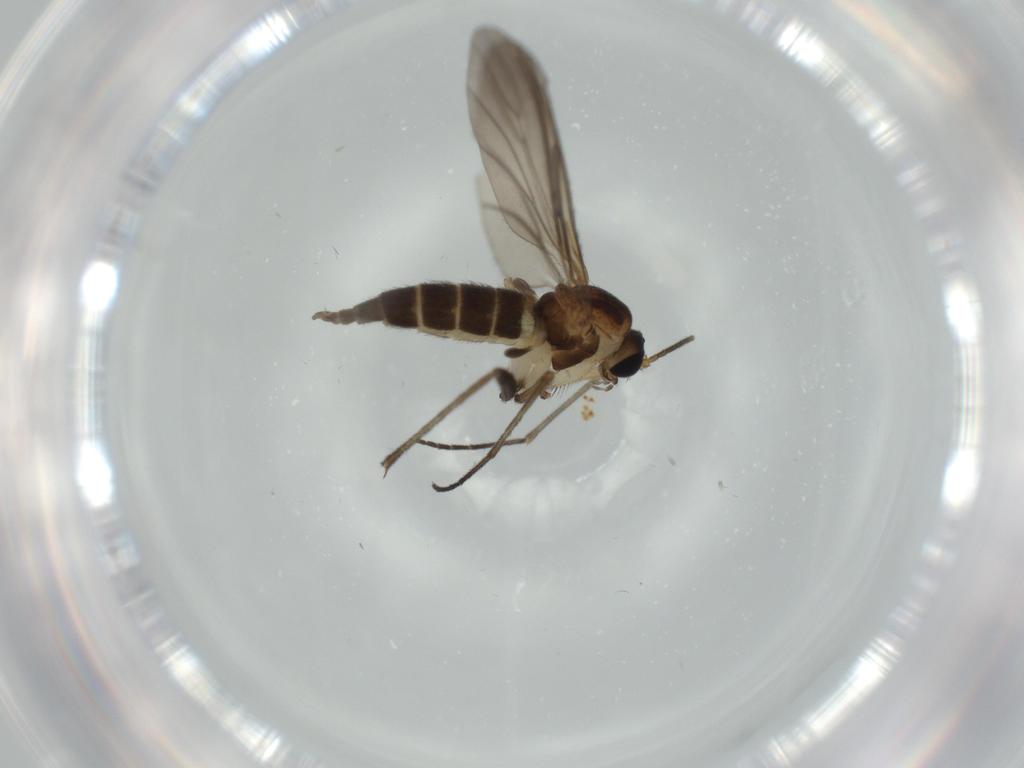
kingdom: Animalia
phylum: Arthropoda
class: Insecta
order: Diptera
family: Sciaridae
